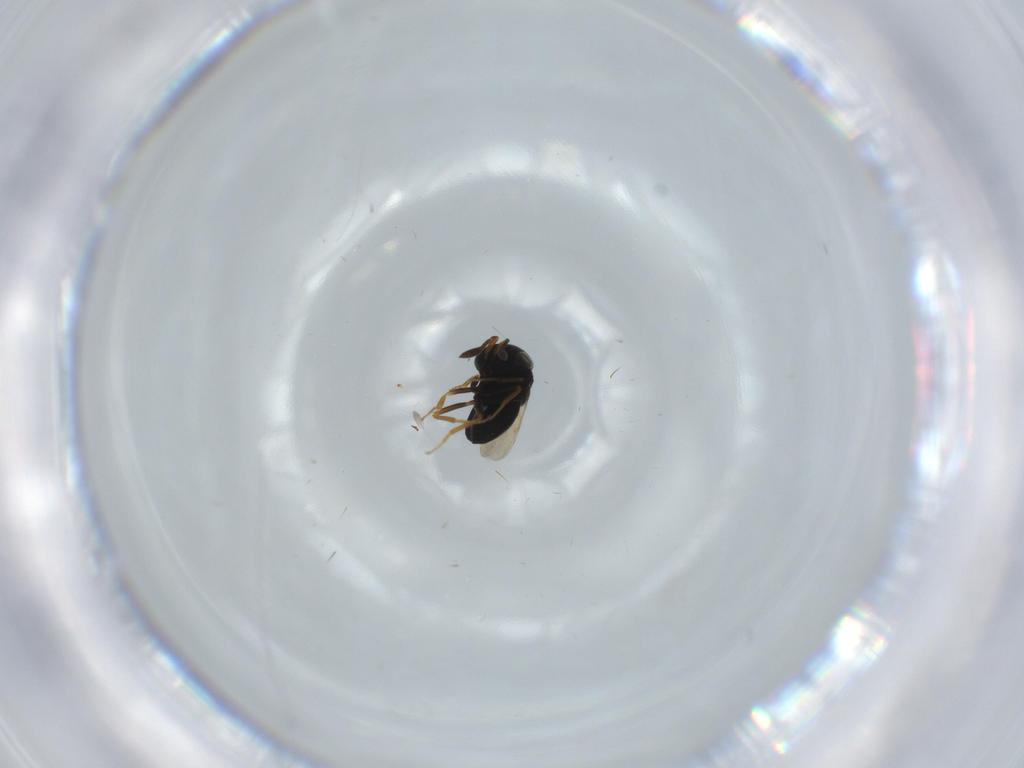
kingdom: Animalia
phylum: Arthropoda
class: Insecta
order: Hymenoptera
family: Scelionidae
